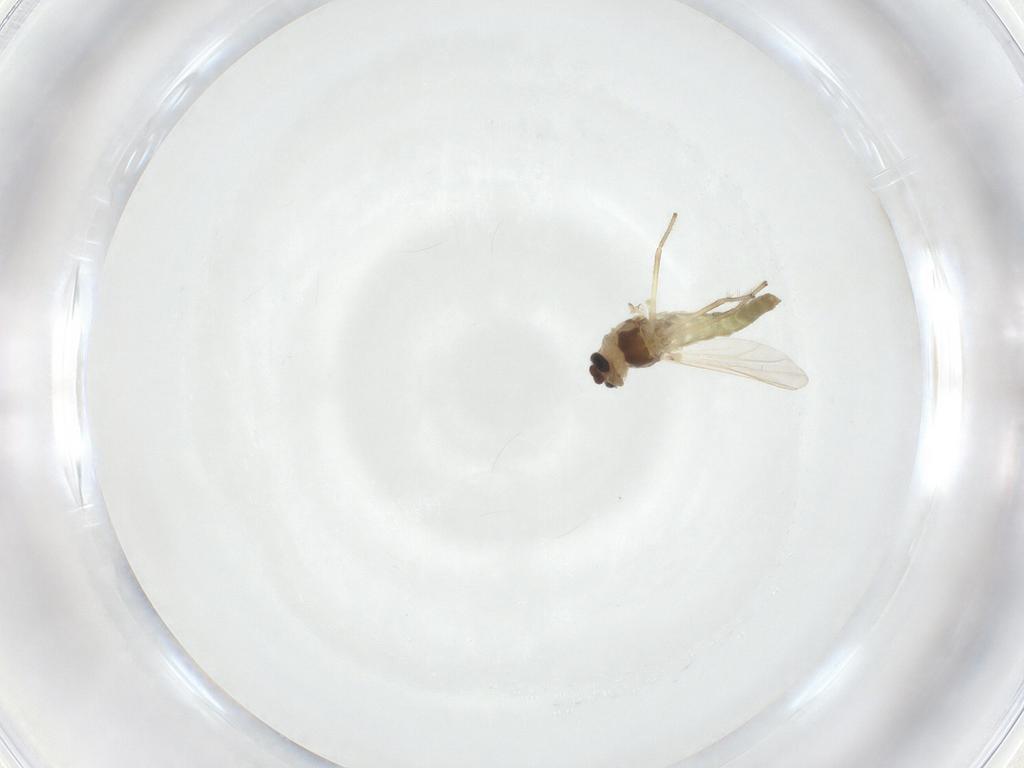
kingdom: Animalia
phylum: Arthropoda
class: Insecta
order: Diptera
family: Chironomidae
